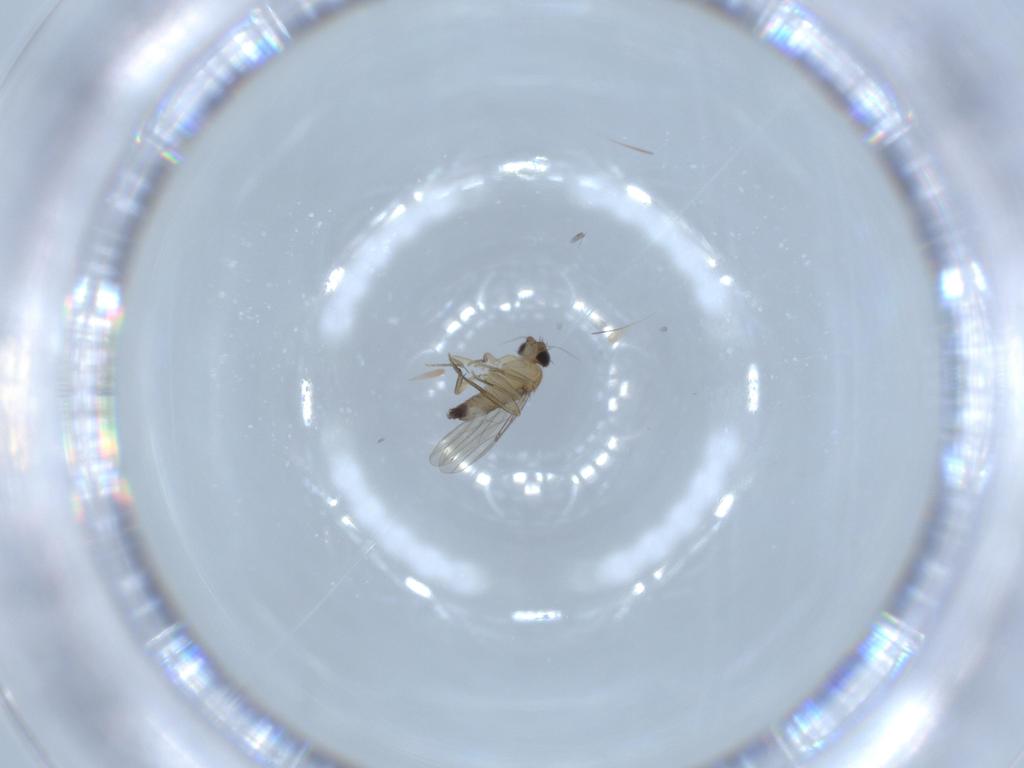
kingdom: Animalia
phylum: Arthropoda
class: Insecta
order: Diptera
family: Phoridae
